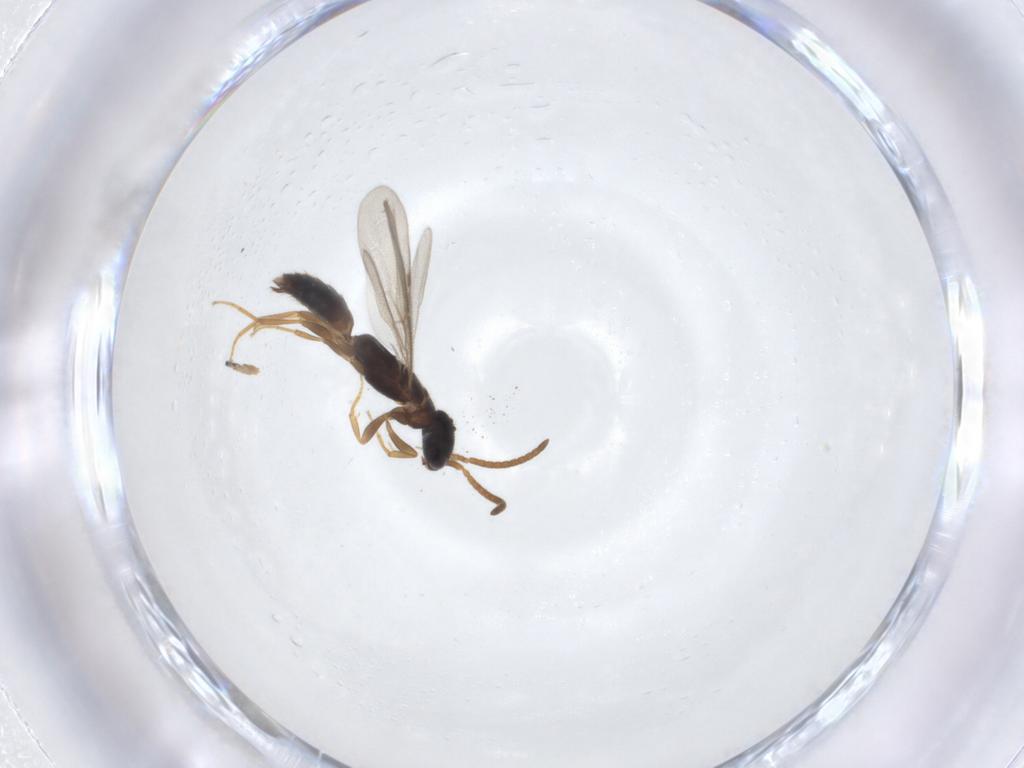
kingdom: Animalia
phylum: Arthropoda
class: Insecta
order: Hymenoptera
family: Bethylidae
